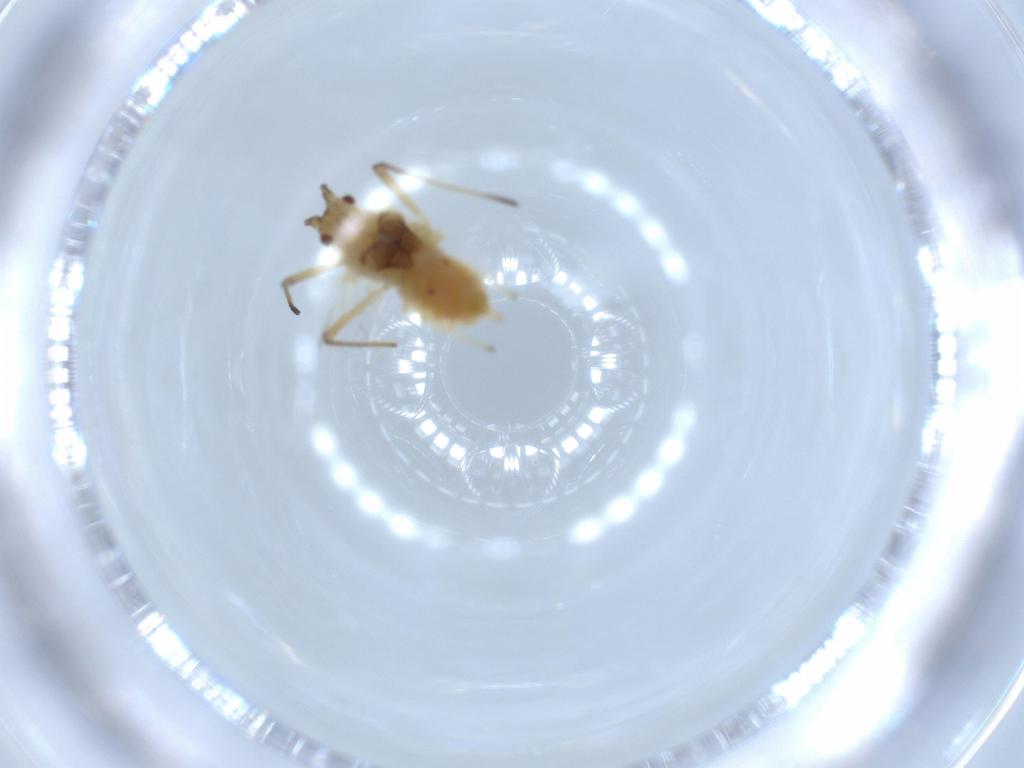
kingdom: Animalia
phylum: Arthropoda
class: Insecta
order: Hemiptera
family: Aphididae
